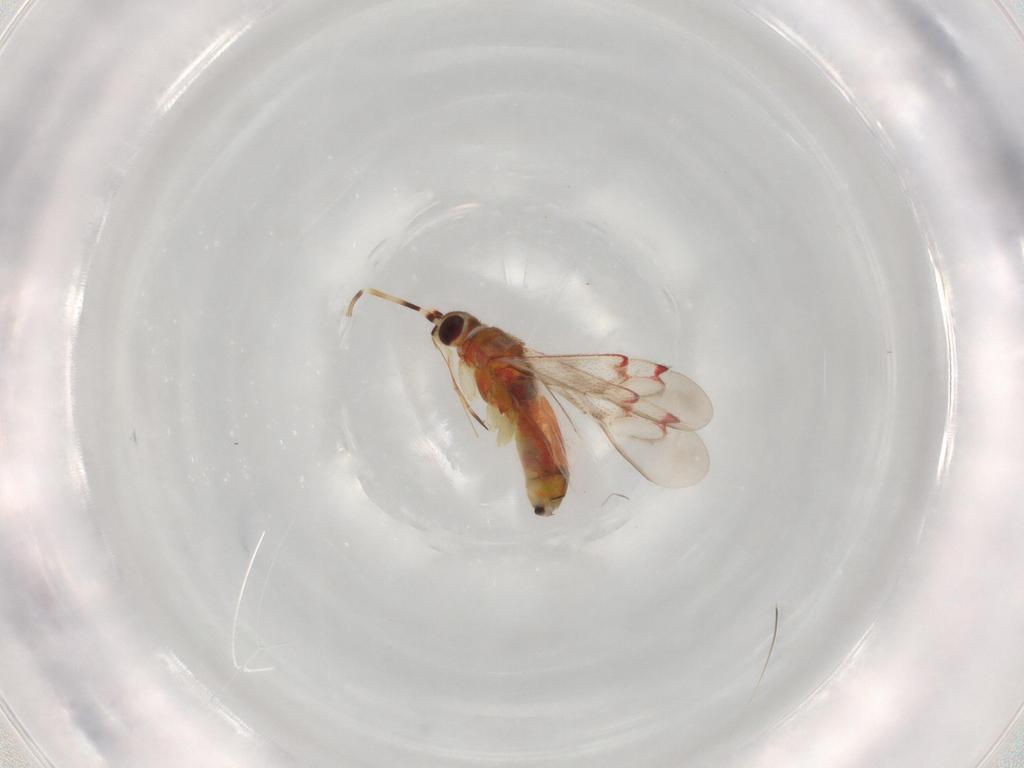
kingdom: Animalia
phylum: Arthropoda
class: Insecta
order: Hemiptera
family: Miridae
